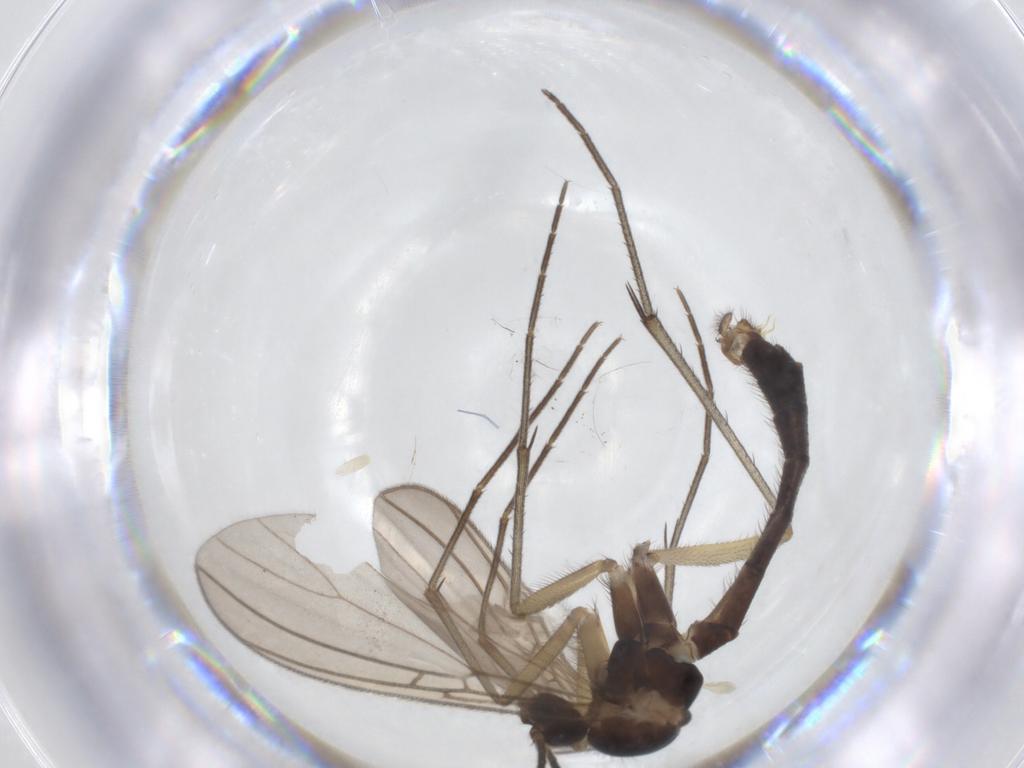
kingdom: Animalia
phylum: Arthropoda
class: Insecta
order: Diptera
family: Mycetophilidae
